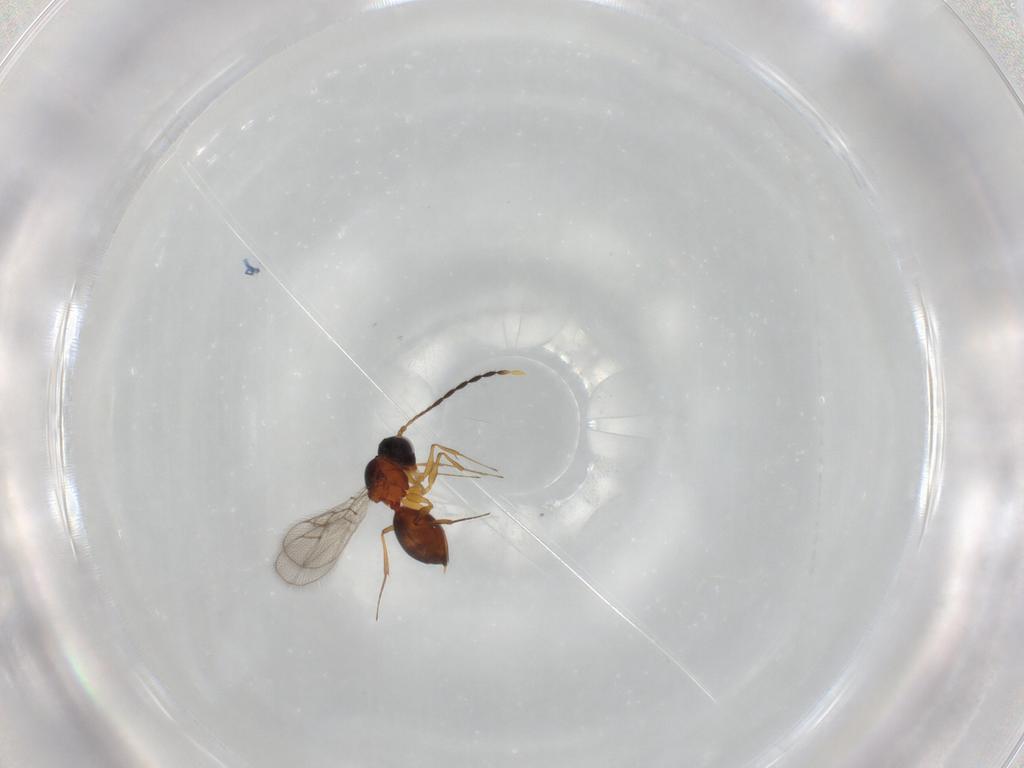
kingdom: Animalia
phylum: Arthropoda
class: Insecta
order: Hymenoptera
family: Figitidae
